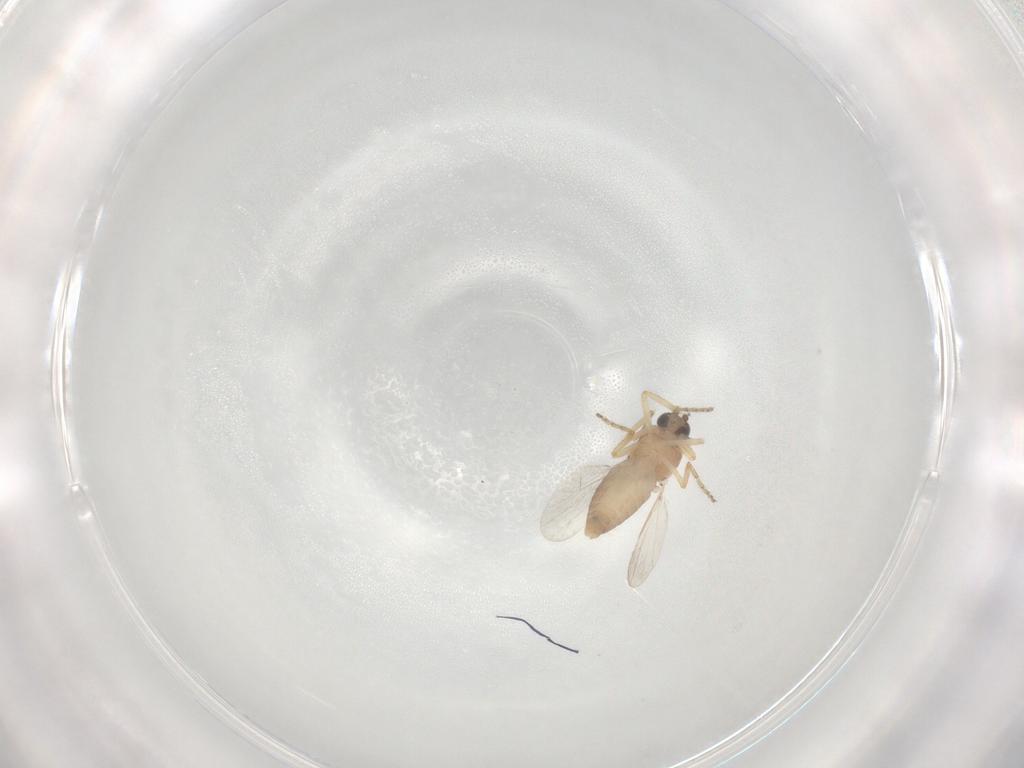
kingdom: Animalia
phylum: Arthropoda
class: Insecta
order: Diptera
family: Ceratopogonidae
